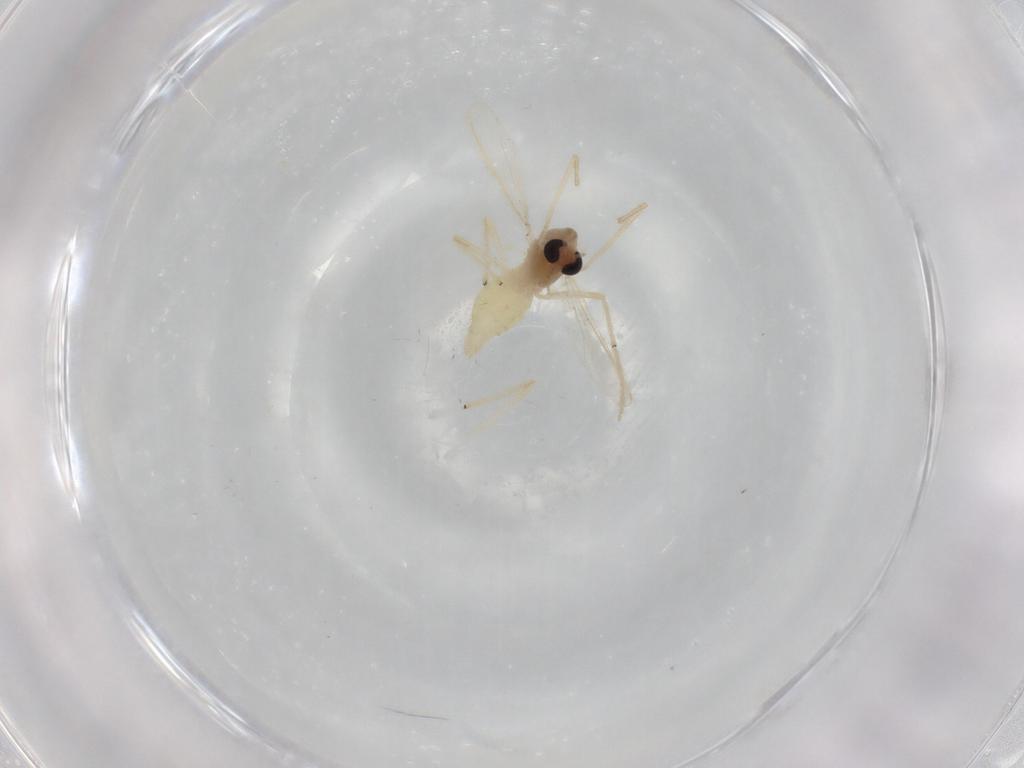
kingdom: Animalia
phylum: Arthropoda
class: Insecta
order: Diptera
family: Chironomidae
